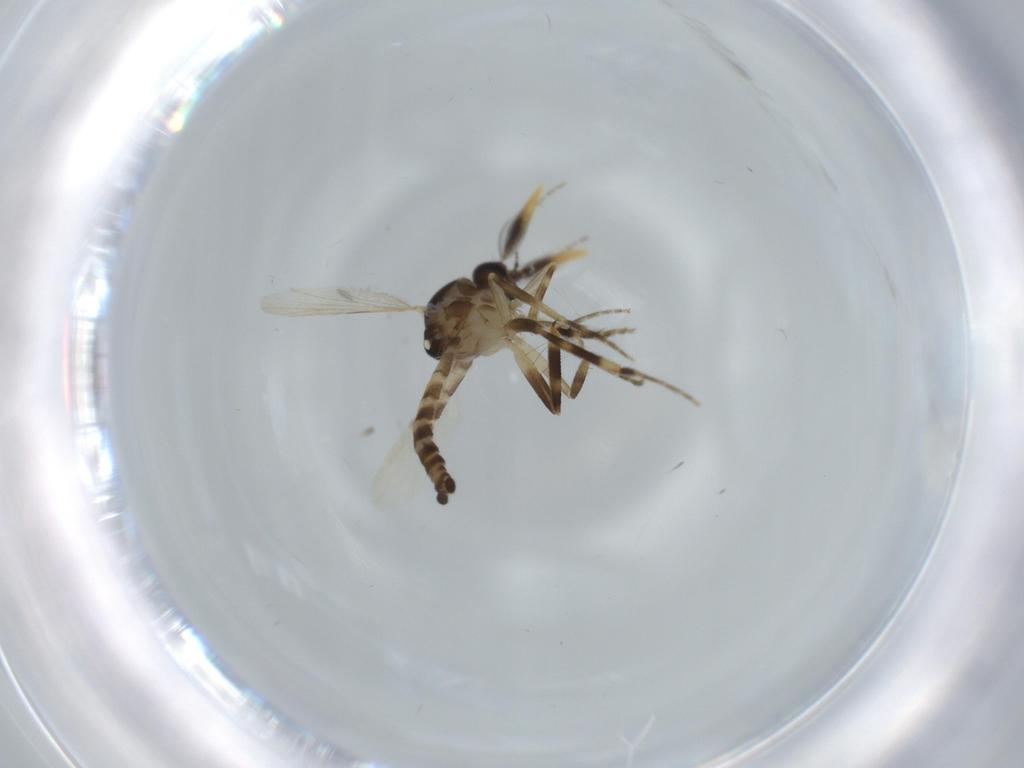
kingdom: Animalia
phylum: Arthropoda
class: Insecta
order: Diptera
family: Ceratopogonidae
